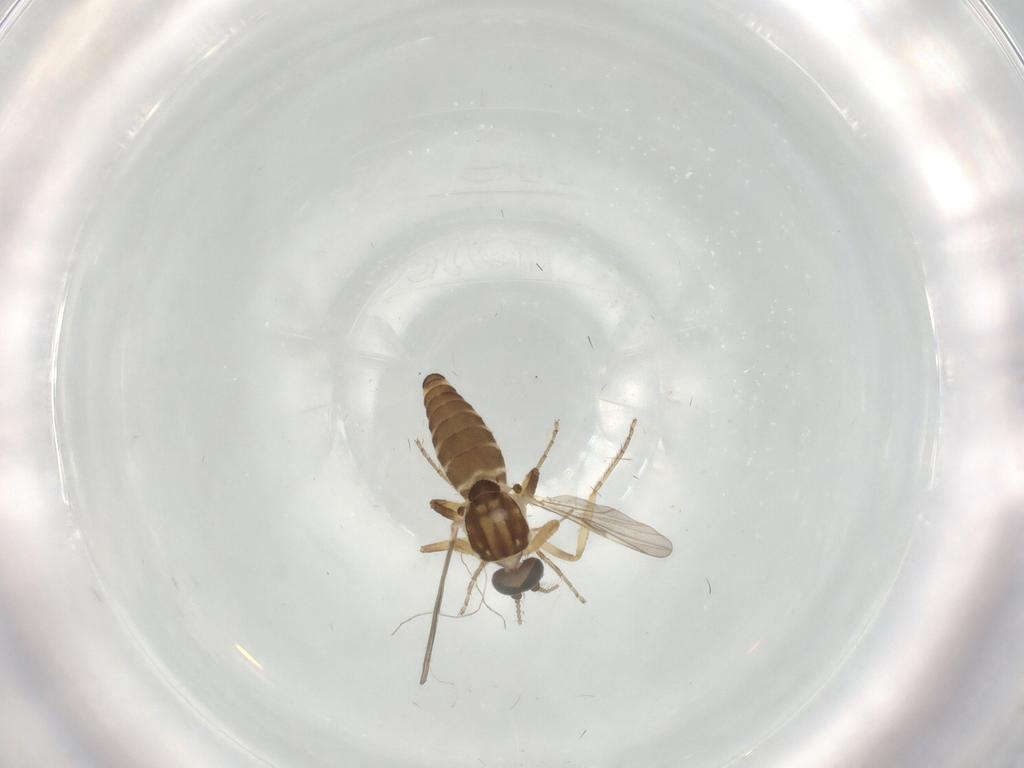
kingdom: Animalia
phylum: Arthropoda
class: Insecta
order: Diptera
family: Ceratopogonidae
